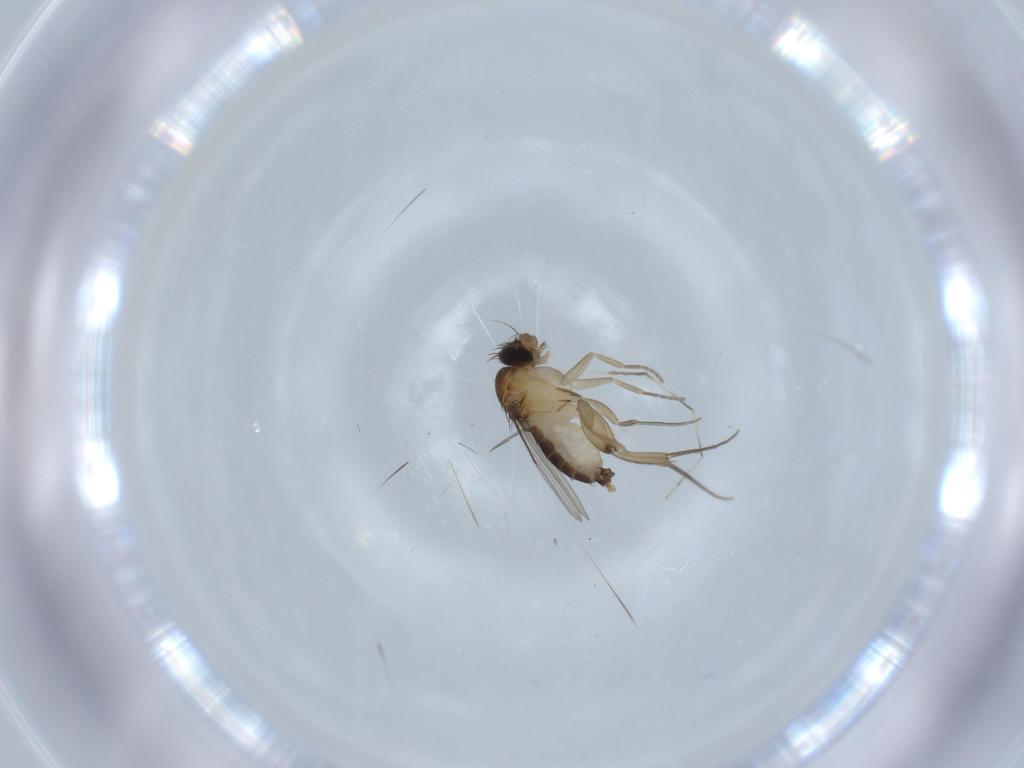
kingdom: Animalia
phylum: Arthropoda
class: Insecta
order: Diptera
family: Phoridae
